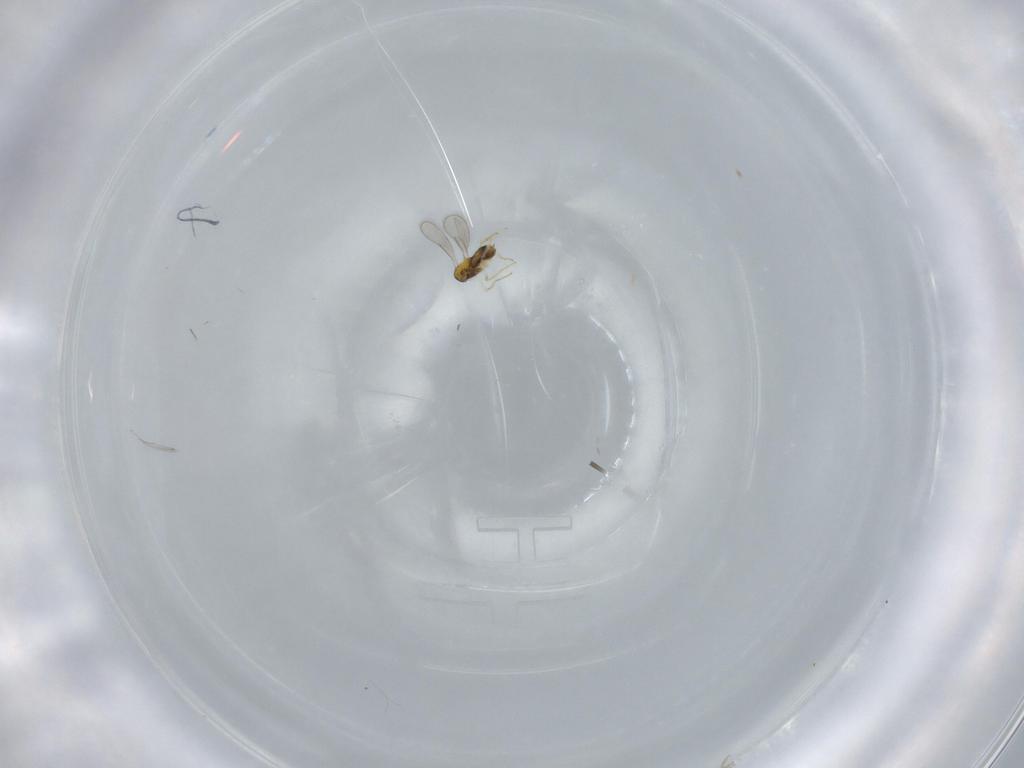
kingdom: Animalia
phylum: Arthropoda
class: Insecta
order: Hymenoptera
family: Aphelinidae
